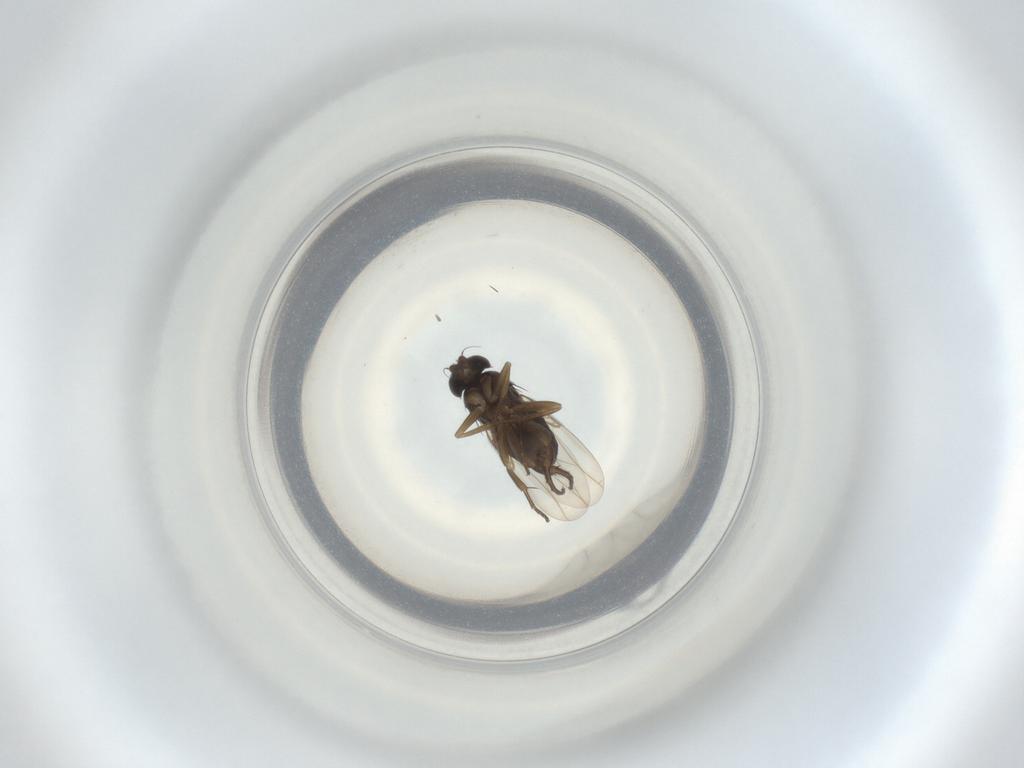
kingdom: Animalia
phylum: Arthropoda
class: Insecta
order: Diptera
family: Phoridae
